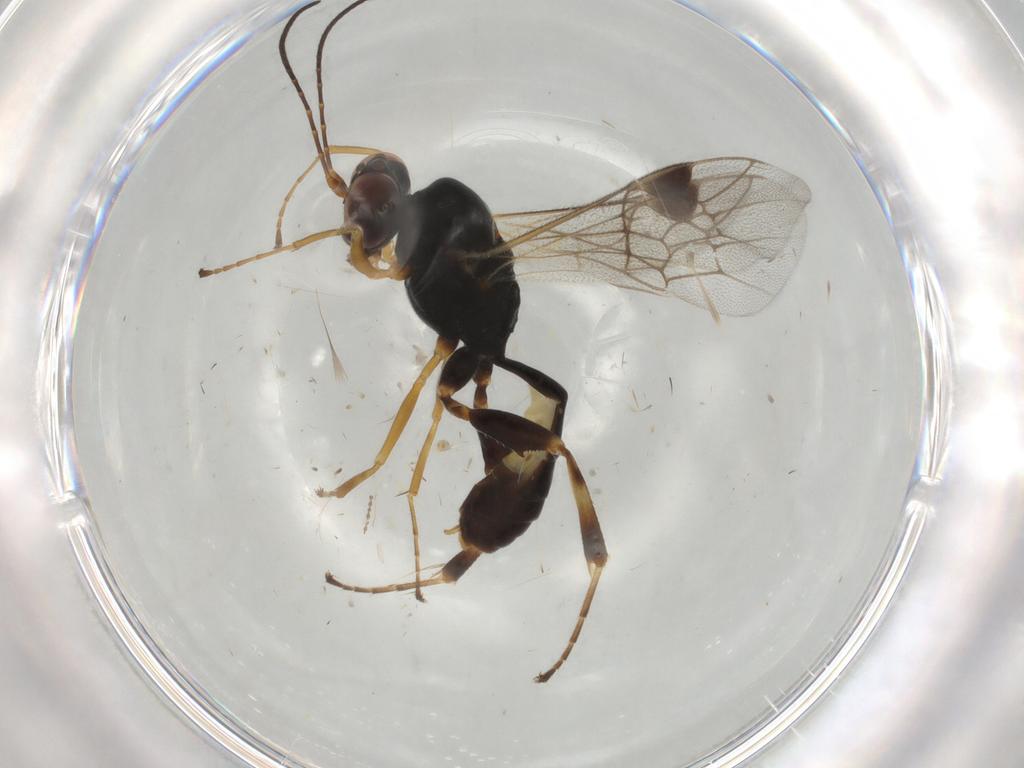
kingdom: Animalia
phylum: Arthropoda
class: Insecta
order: Hymenoptera
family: Ichneumonidae
